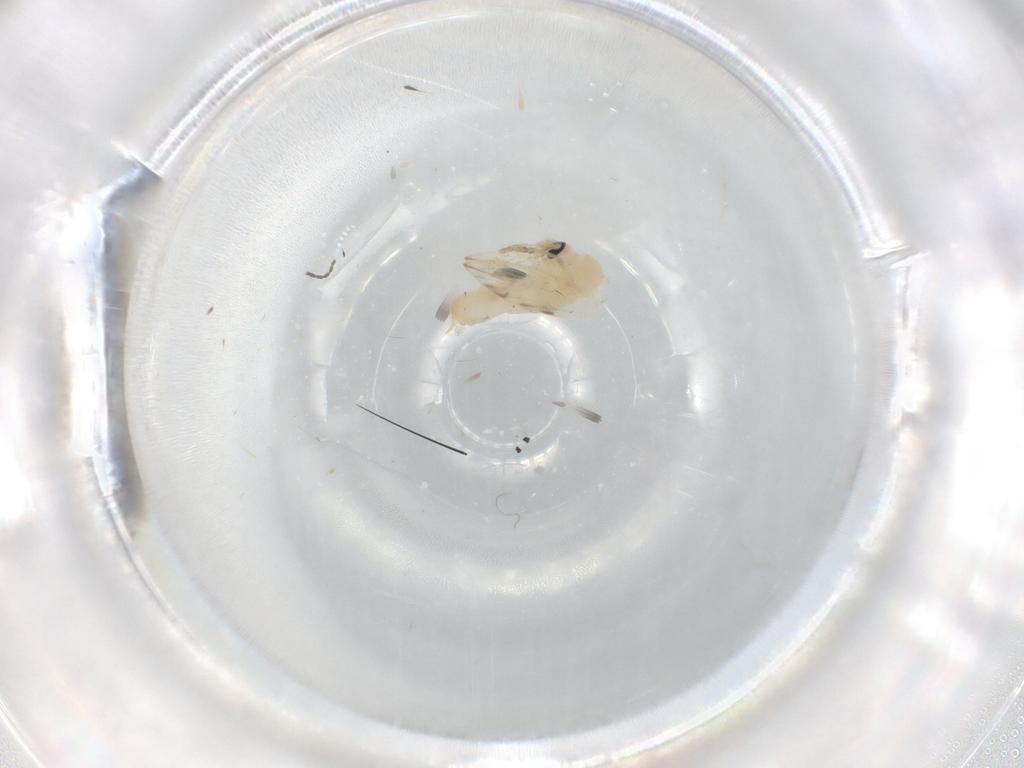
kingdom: Animalia
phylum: Arthropoda
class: Insecta
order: Diptera
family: Psychodidae
